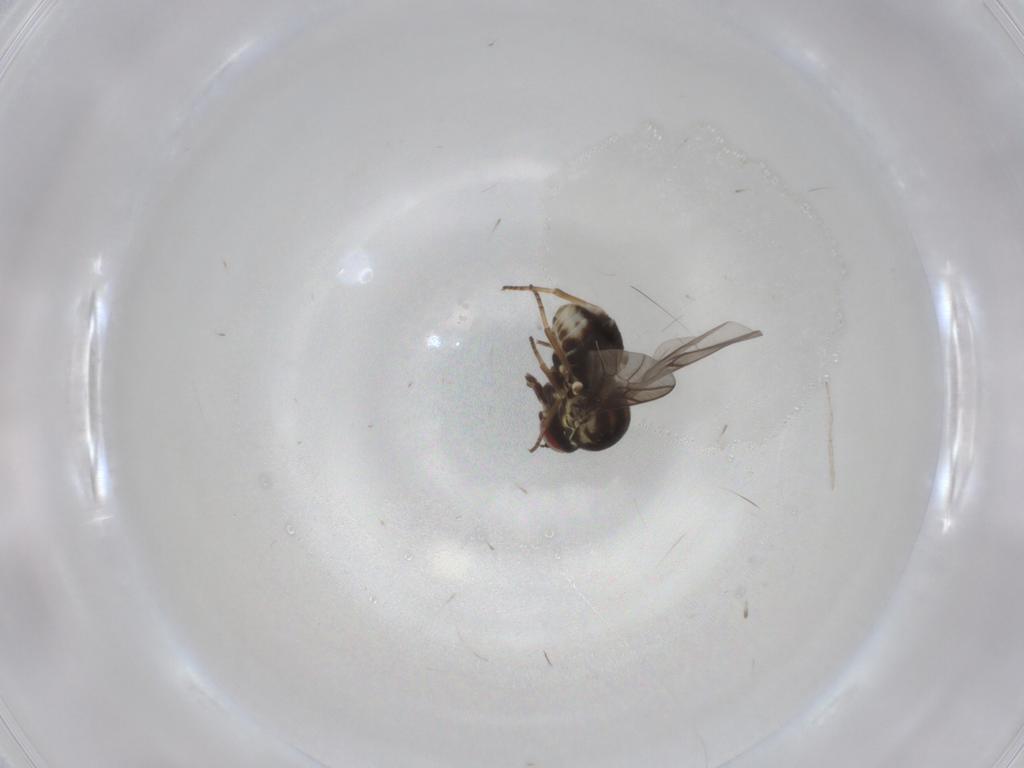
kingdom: Animalia
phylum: Arthropoda
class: Insecta
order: Diptera
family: Bombyliidae
